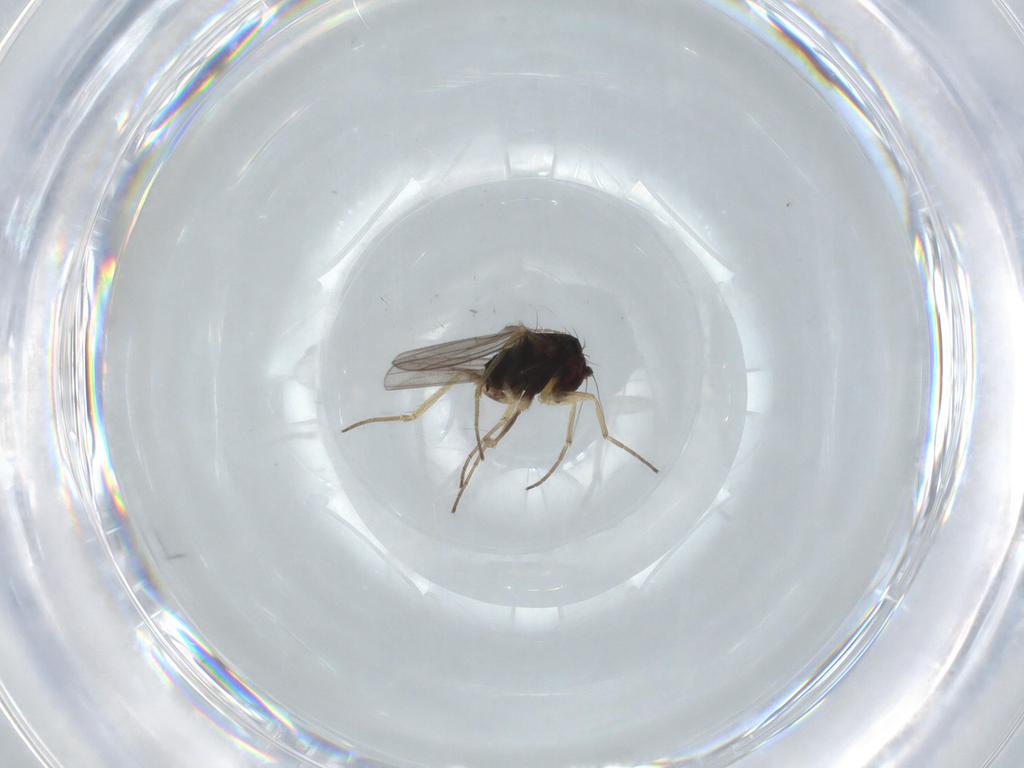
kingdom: Animalia
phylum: Arthropoda
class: Insecta
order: Diptera
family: Dolichopodidae
